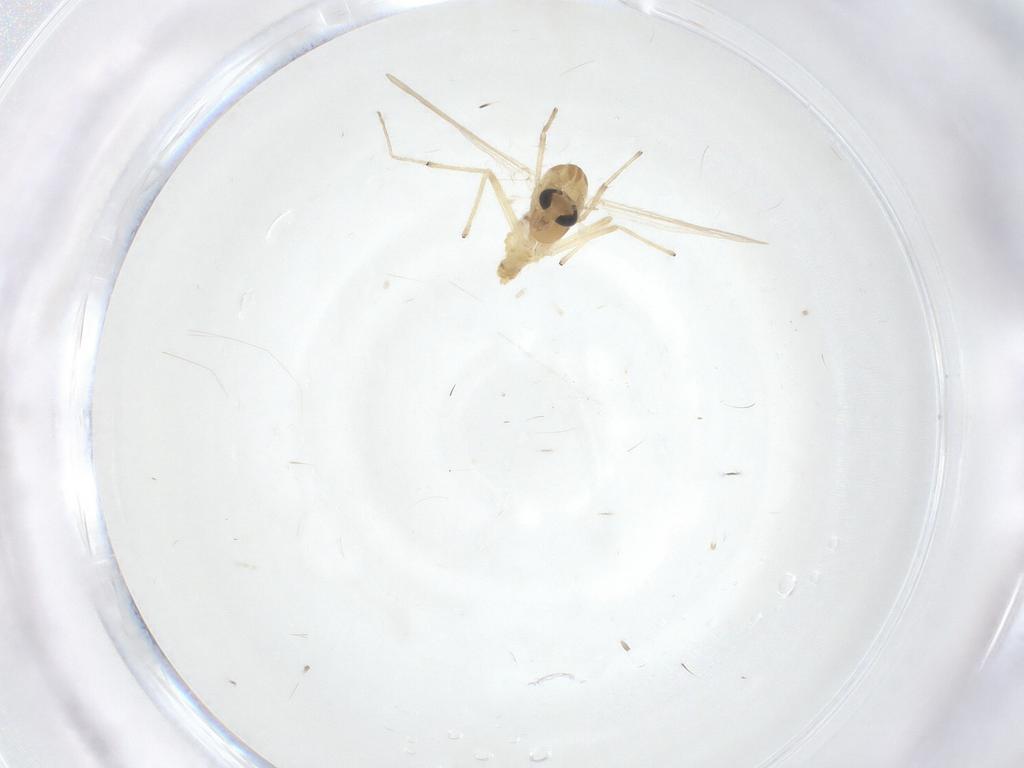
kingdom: Animalia
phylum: Arthropoda
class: Insecta
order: Diptera
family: Chironomidae
